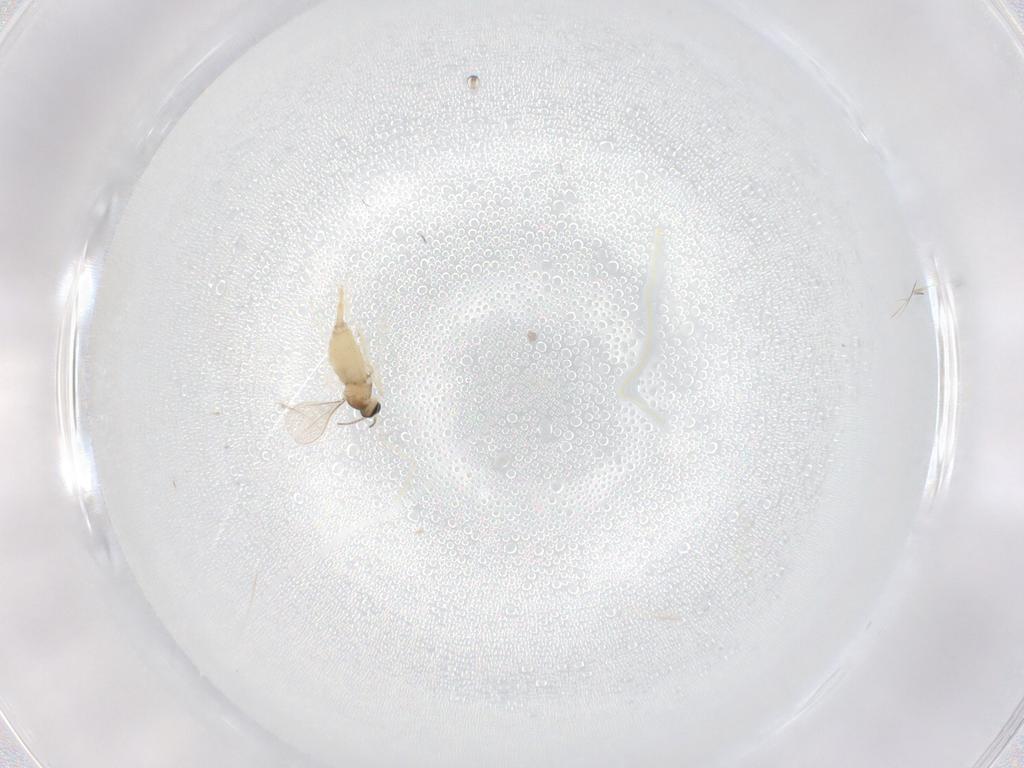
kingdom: Animalia
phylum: Arthropoda
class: Insecta
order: Diptera
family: Cecidomyiidae
